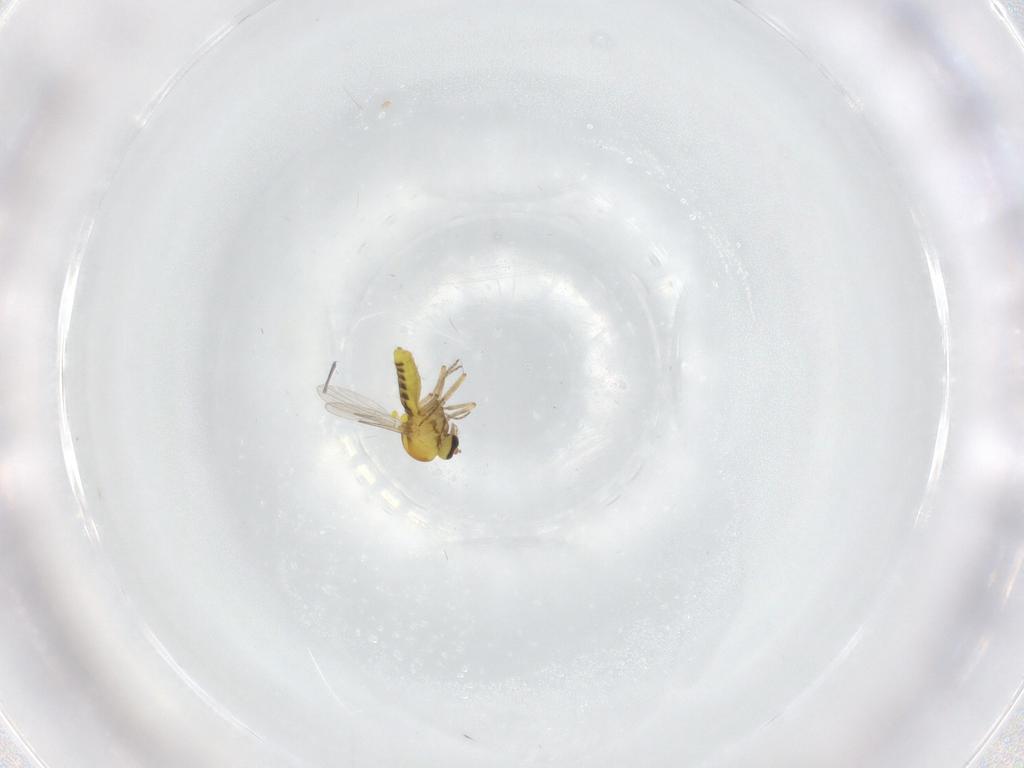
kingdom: Animalia
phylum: Arthropoda
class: Insecta
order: Diptera
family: Ceratopogonidae
